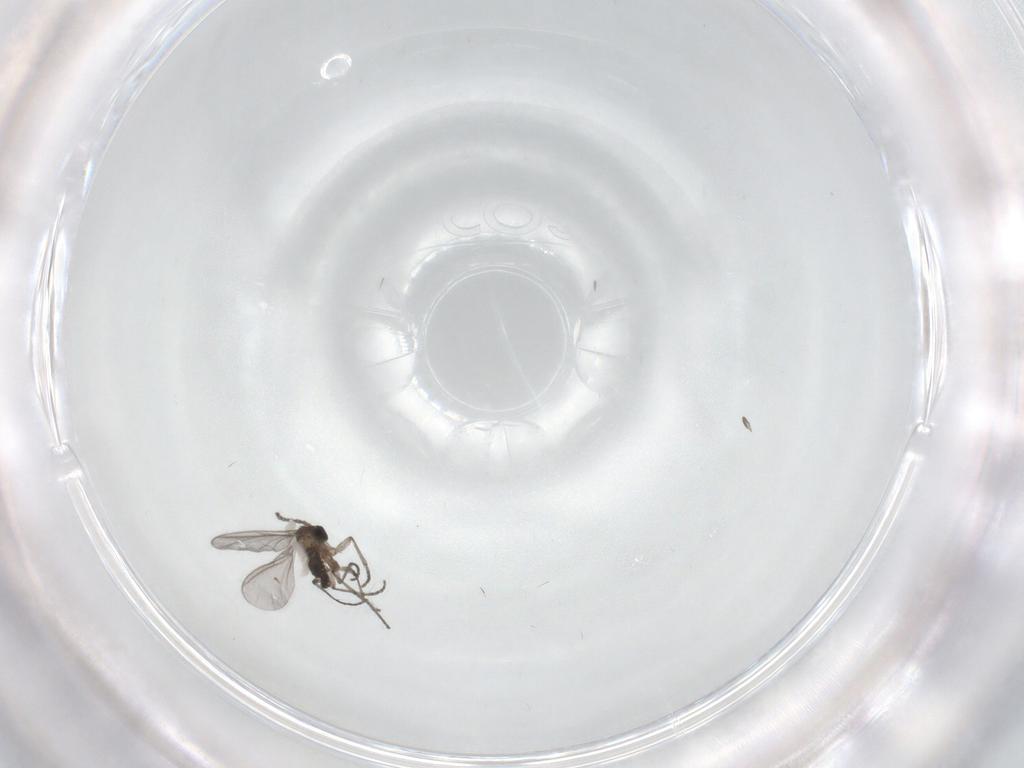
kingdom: Animalia
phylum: Arthropoda
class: Insecta
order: Diptera
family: Sciaridae
